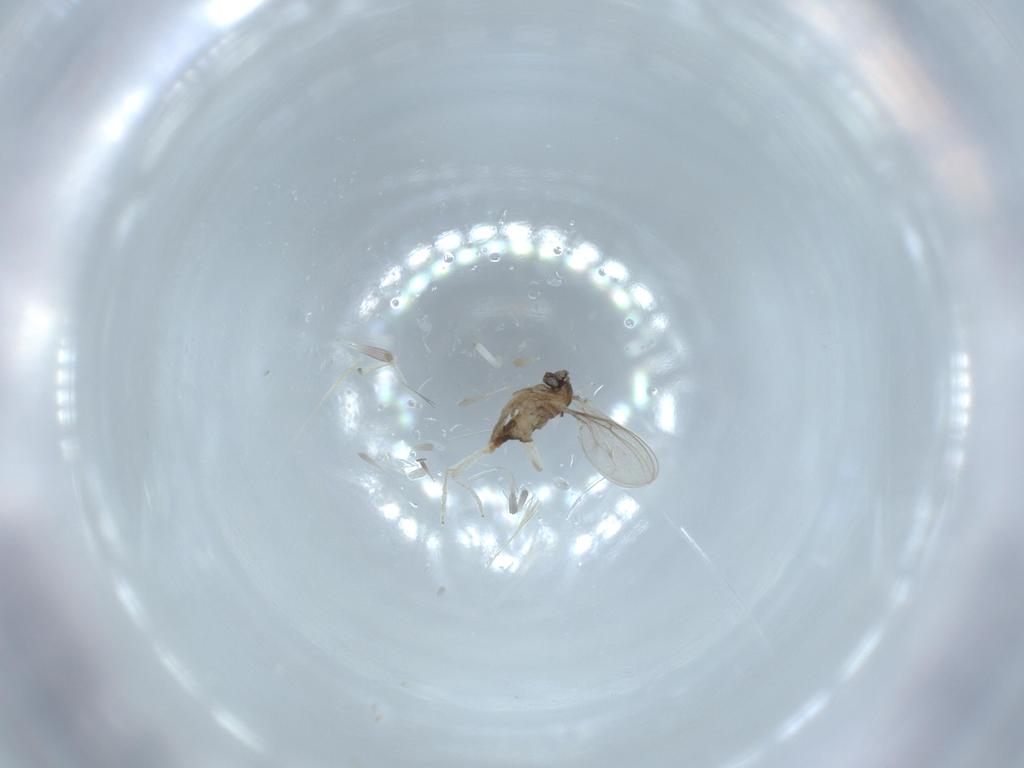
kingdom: Animalia
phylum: Arthropoda
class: Insecta
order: Diptera
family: Cecidomyiidae
